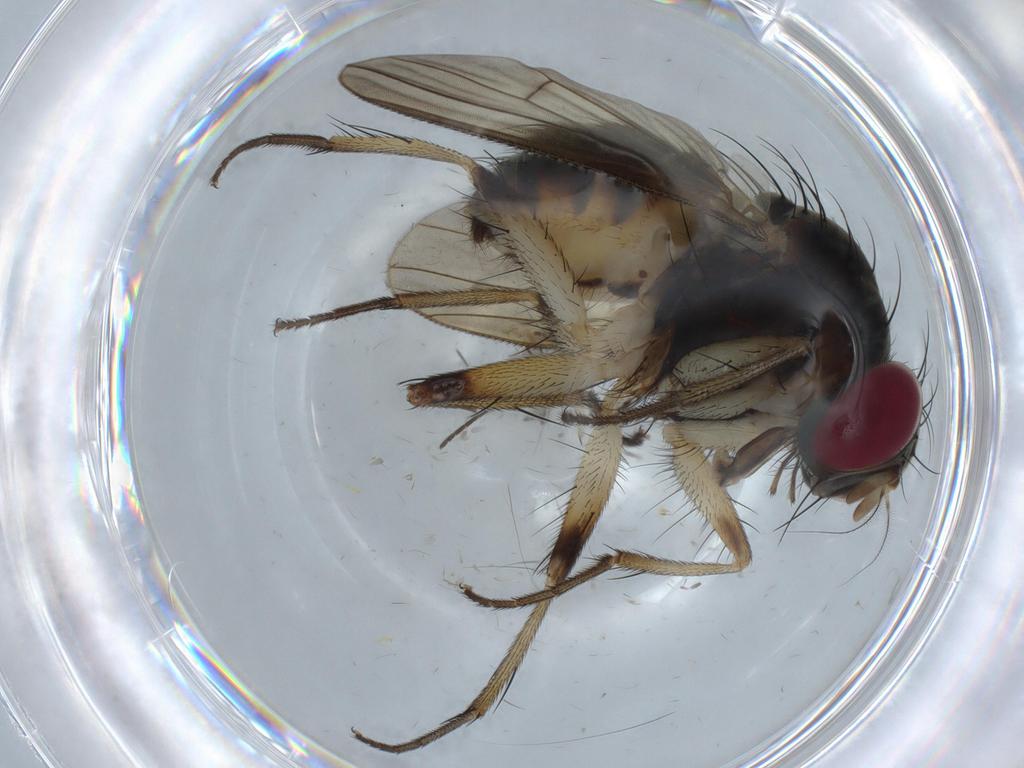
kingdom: Animalia
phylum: Arthropoda
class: Insecta
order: Diptera
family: Muscidae
